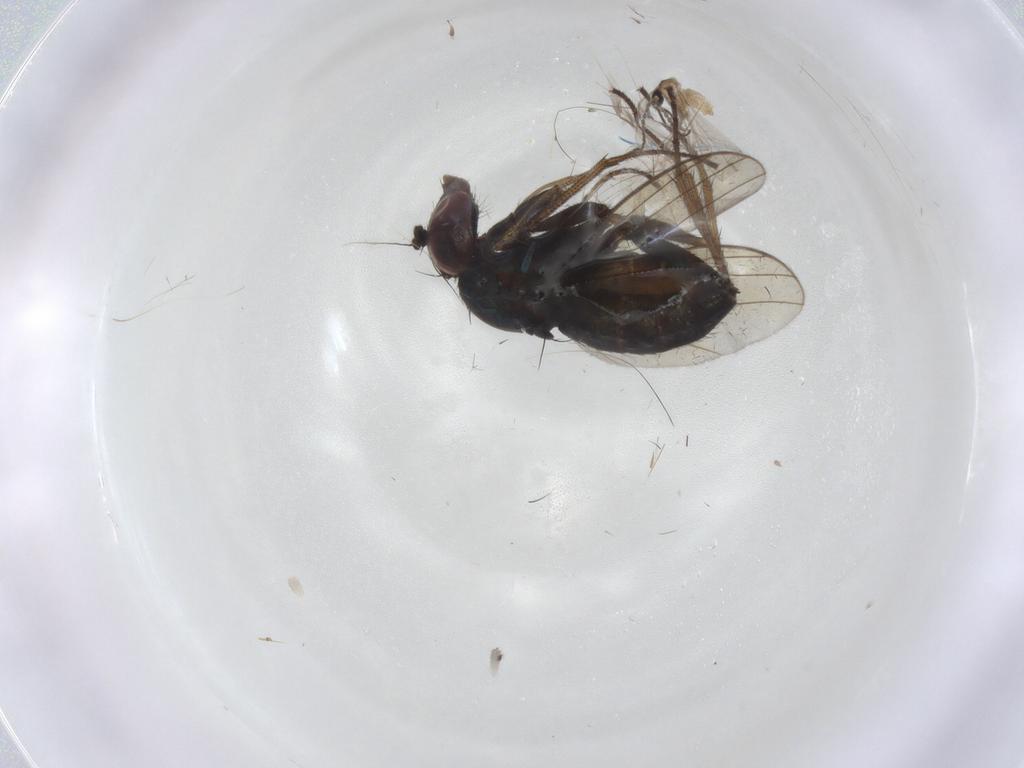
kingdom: Animalia
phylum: Arthropoda
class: Insecta
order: Diptera
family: Dolichopodidae
